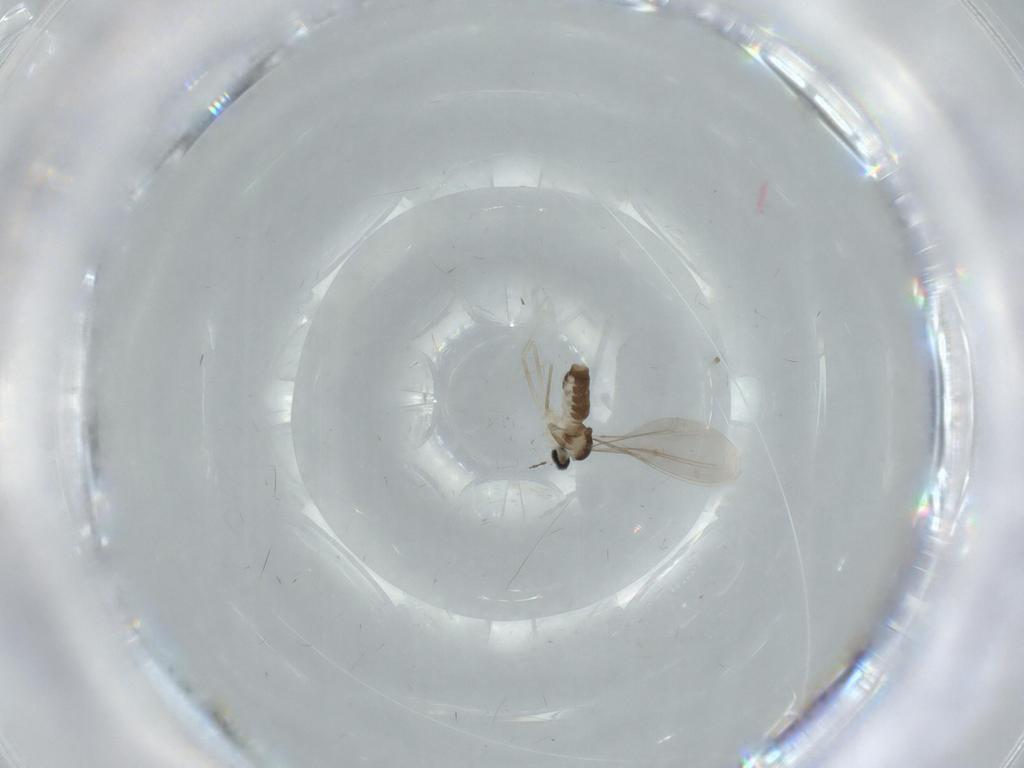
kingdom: Animalia
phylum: Arthropoda
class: Insecta
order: Diptera
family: Cecidomyiidae
